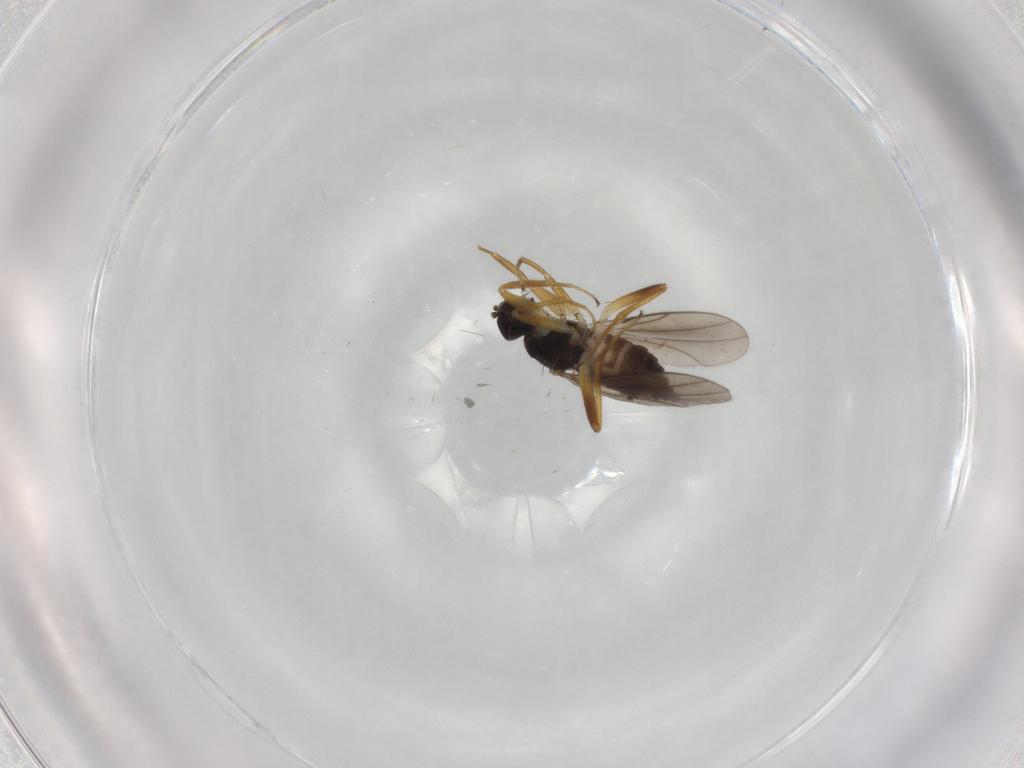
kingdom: Animalia
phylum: Arthropoda
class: Insecta
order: Diptera
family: Hybotidae
